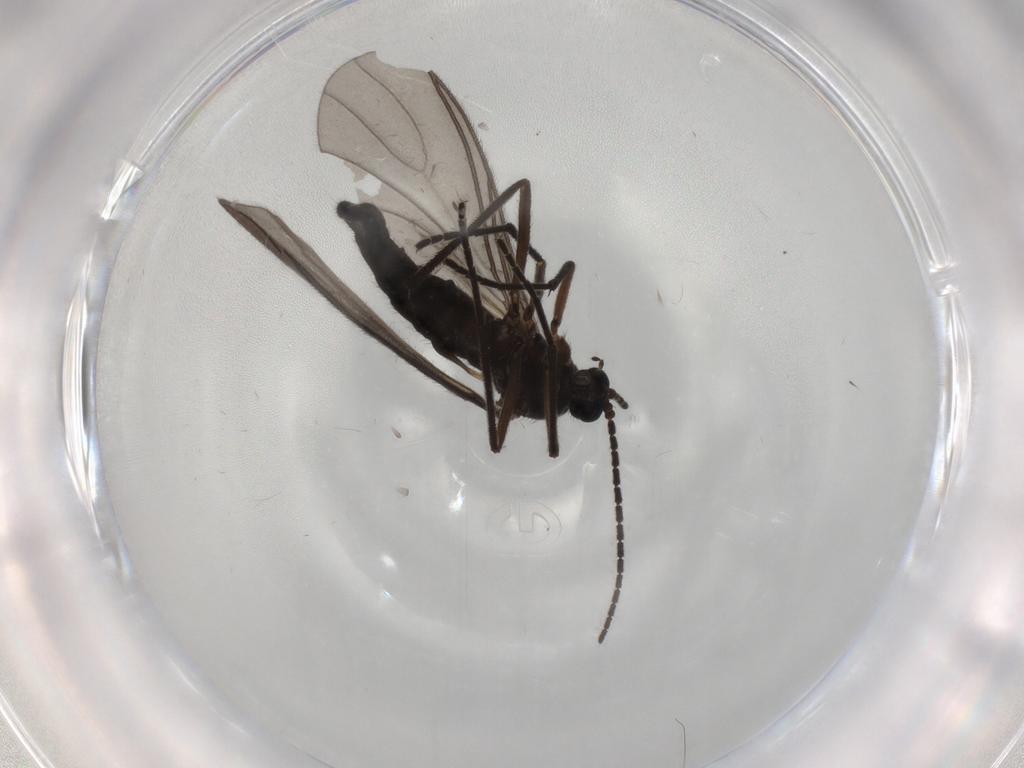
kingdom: Animalia
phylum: Arthropoda
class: Insecta
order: Diptera
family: Sciaridae
